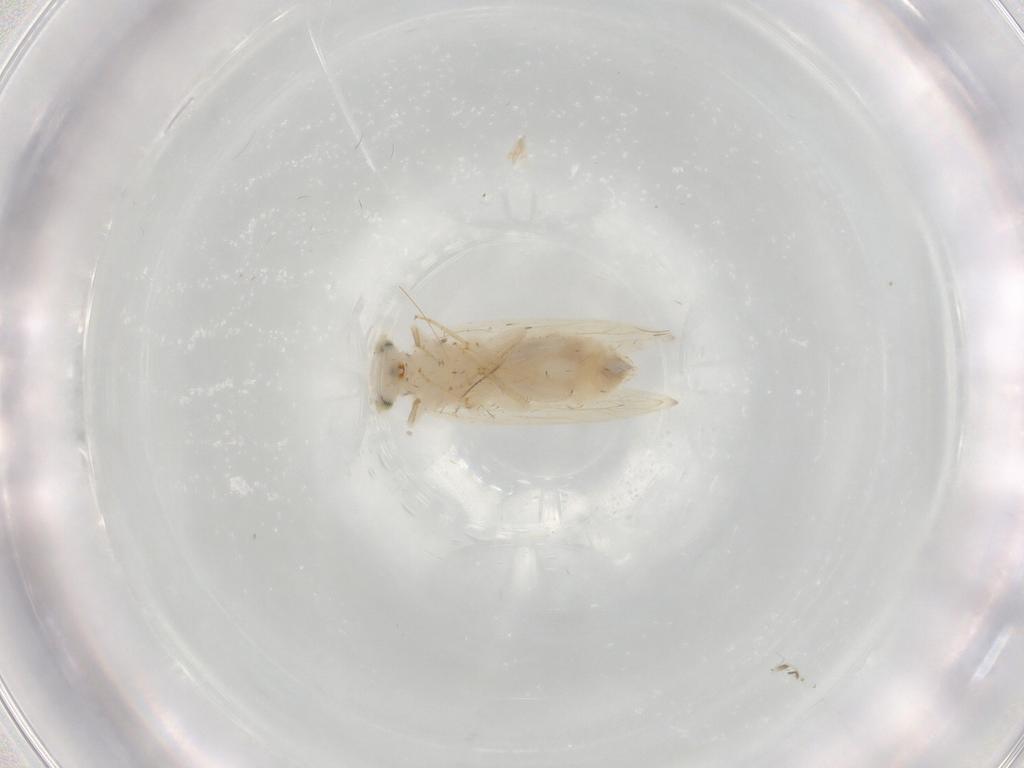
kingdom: Animalia
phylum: Arthropoda
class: Insecta
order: Psocodea
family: Lepidopsocidae
